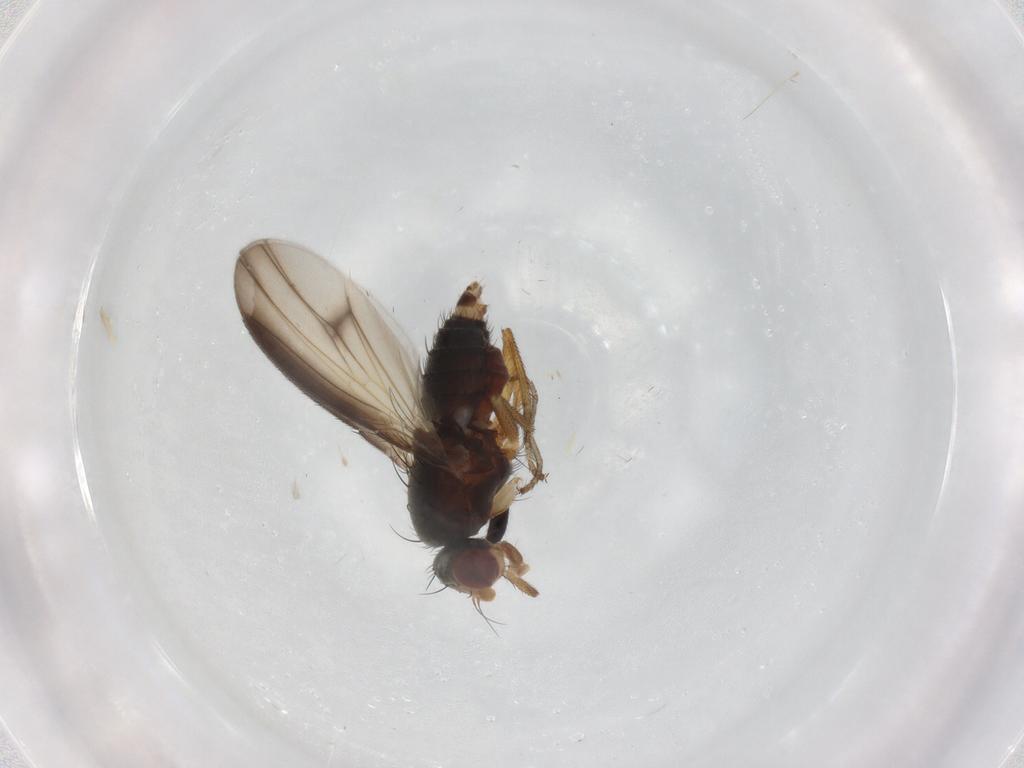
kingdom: Animalia
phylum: Arthropoda
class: Insecta
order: Diptera
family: Heleomyzidae
